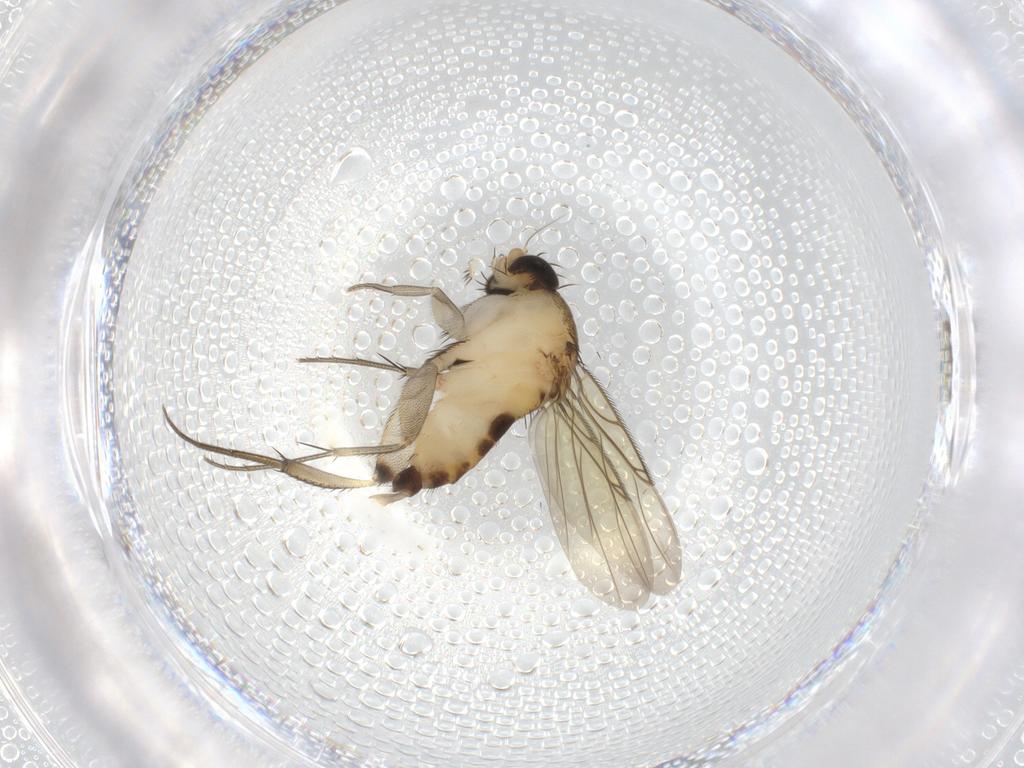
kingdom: Animalia
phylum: Arthropoda
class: Insecta
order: Diptera
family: Phoridae
